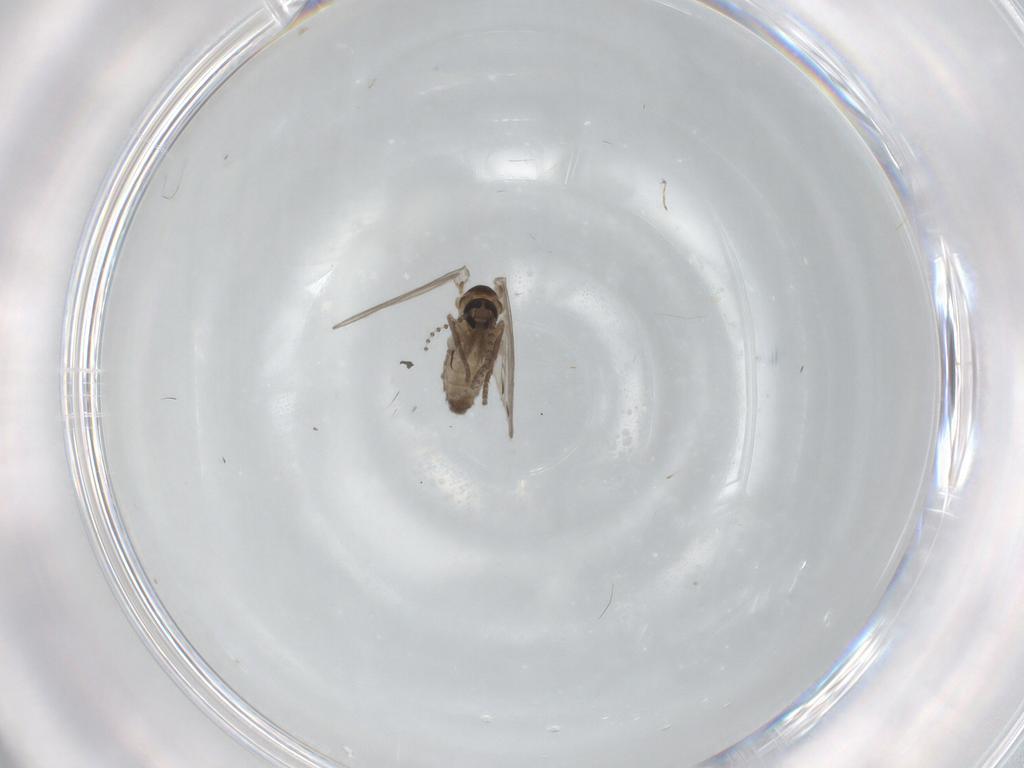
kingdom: Animalia
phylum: Arthropoda
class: Insecta
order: Diptera
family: Psychodidae
